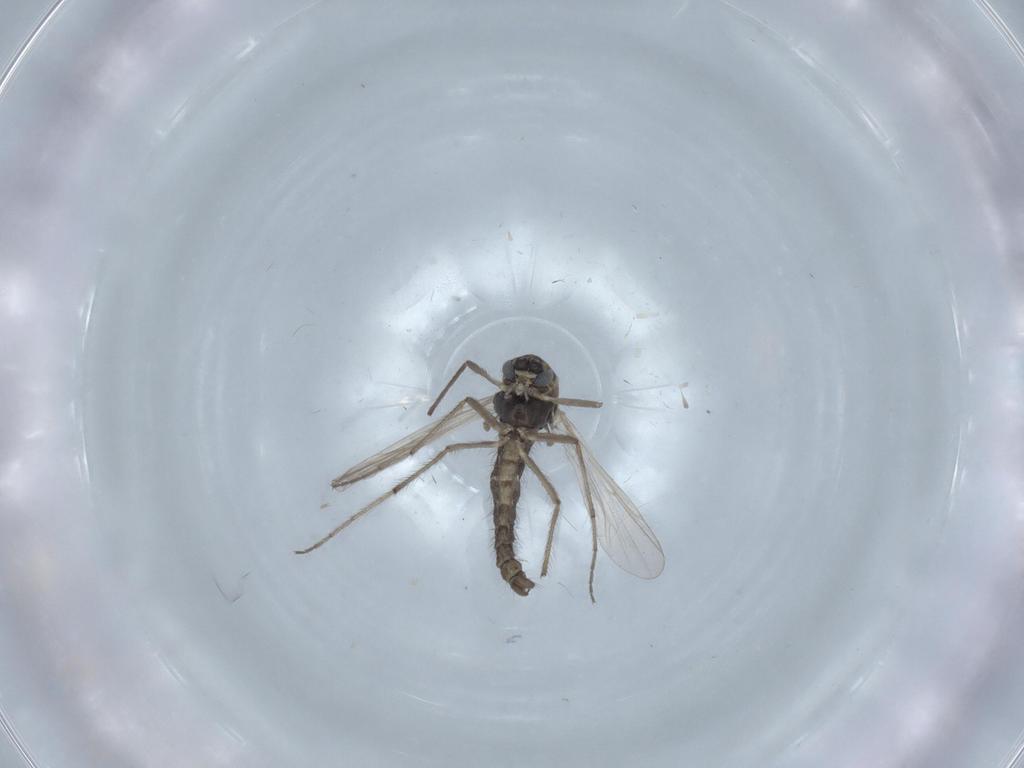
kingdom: Animalia
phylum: Arthropoda
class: Insecta
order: Diptera
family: Chironomidae
